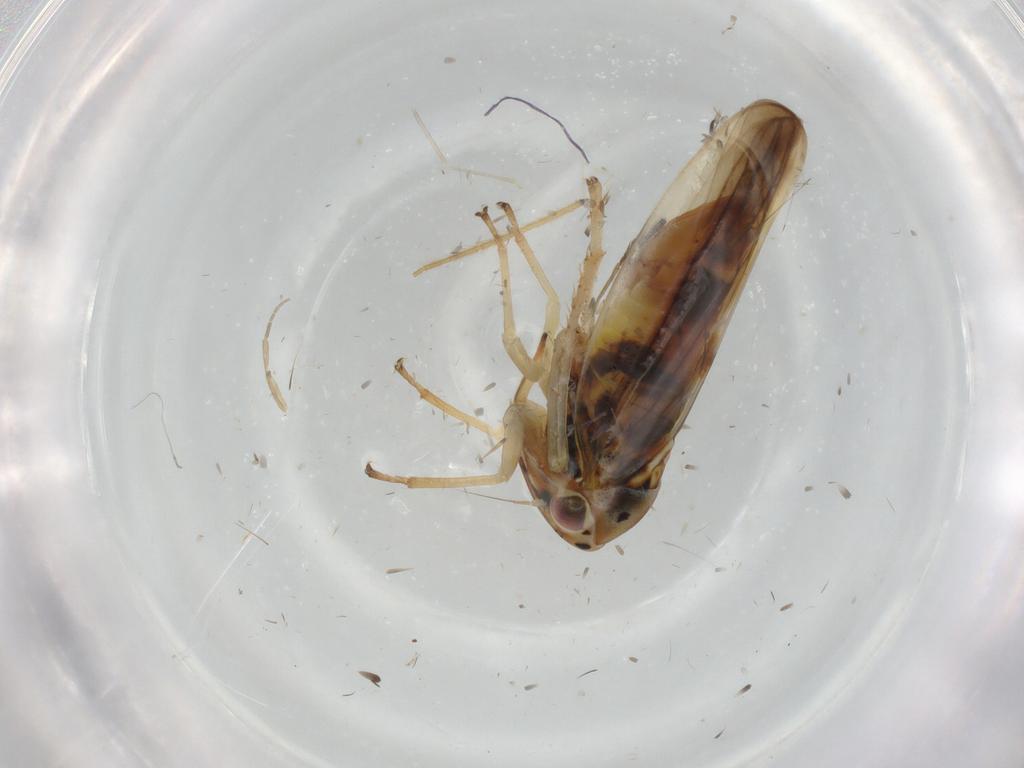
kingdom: Animalia
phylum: Arthropoda
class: Insecta
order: Hemiptera
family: Cicadellidae
